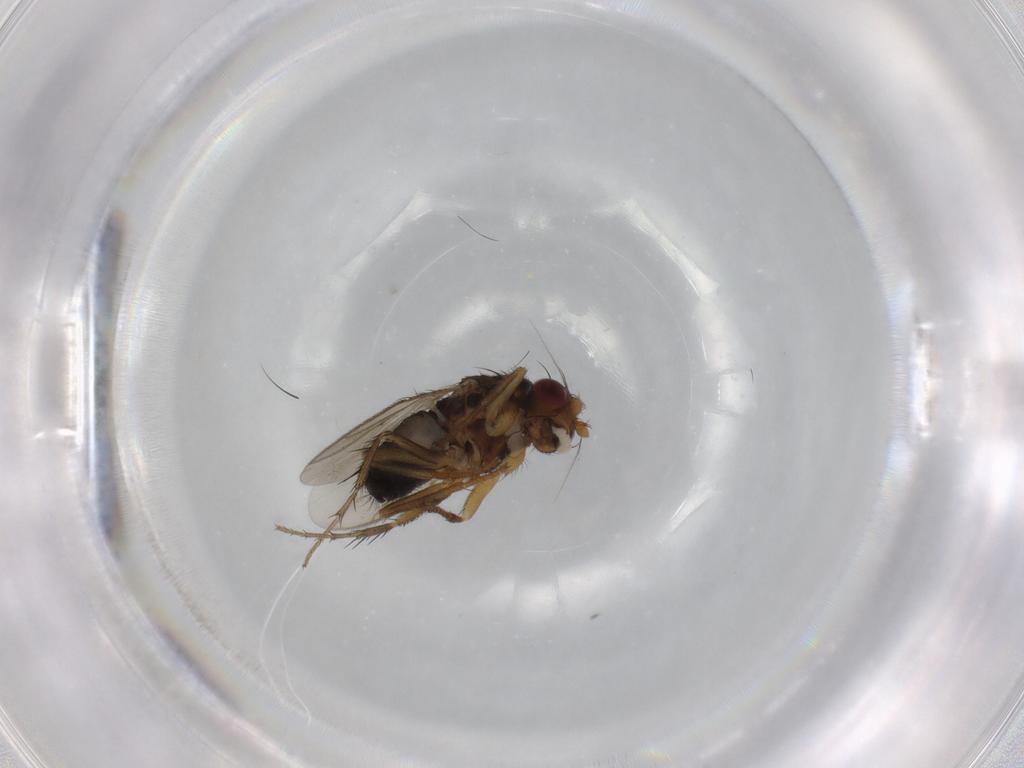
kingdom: Animalia
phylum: Arthropoda
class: Insecta
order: Diptera
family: Sphaeroceridae
